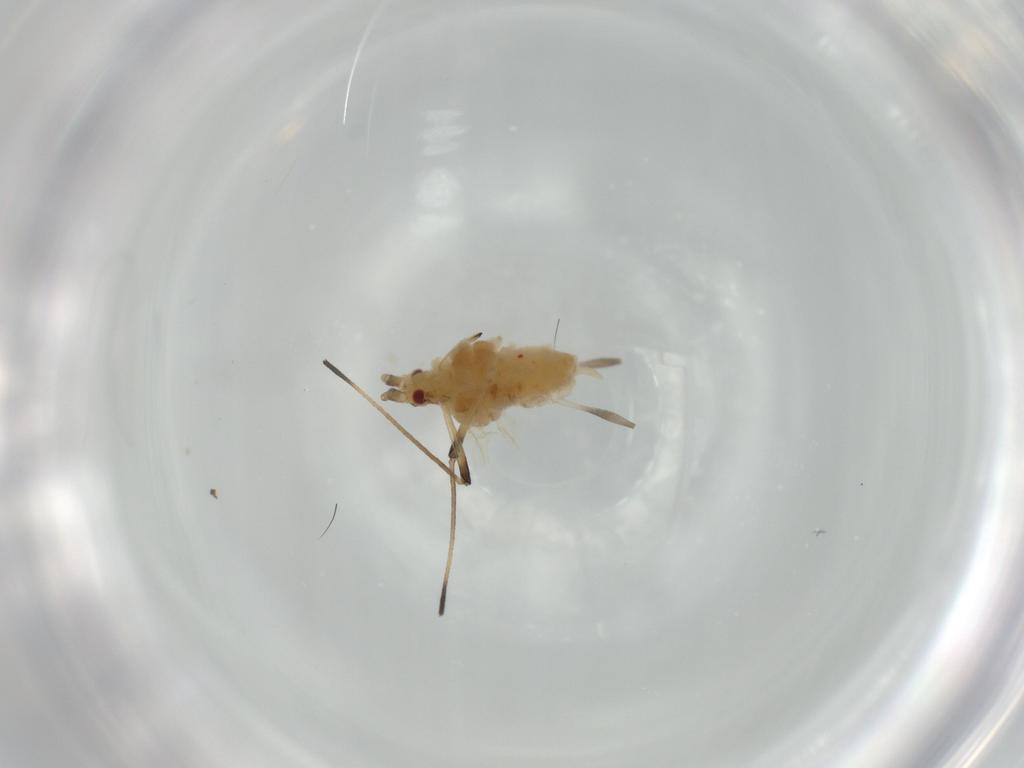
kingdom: Animalia
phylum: Arthropoda
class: Insecta
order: Hemiptera
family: Aphididae
